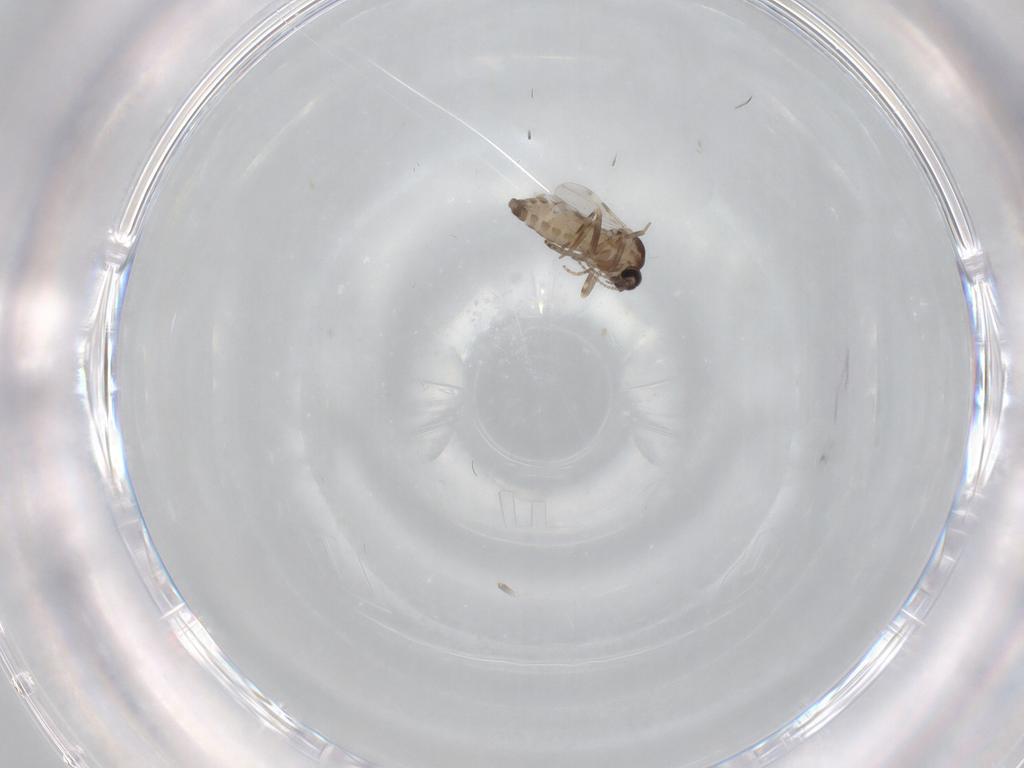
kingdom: Animalia
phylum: Arthropoda
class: Insecta
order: Diptera
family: Ceratopogonidae
